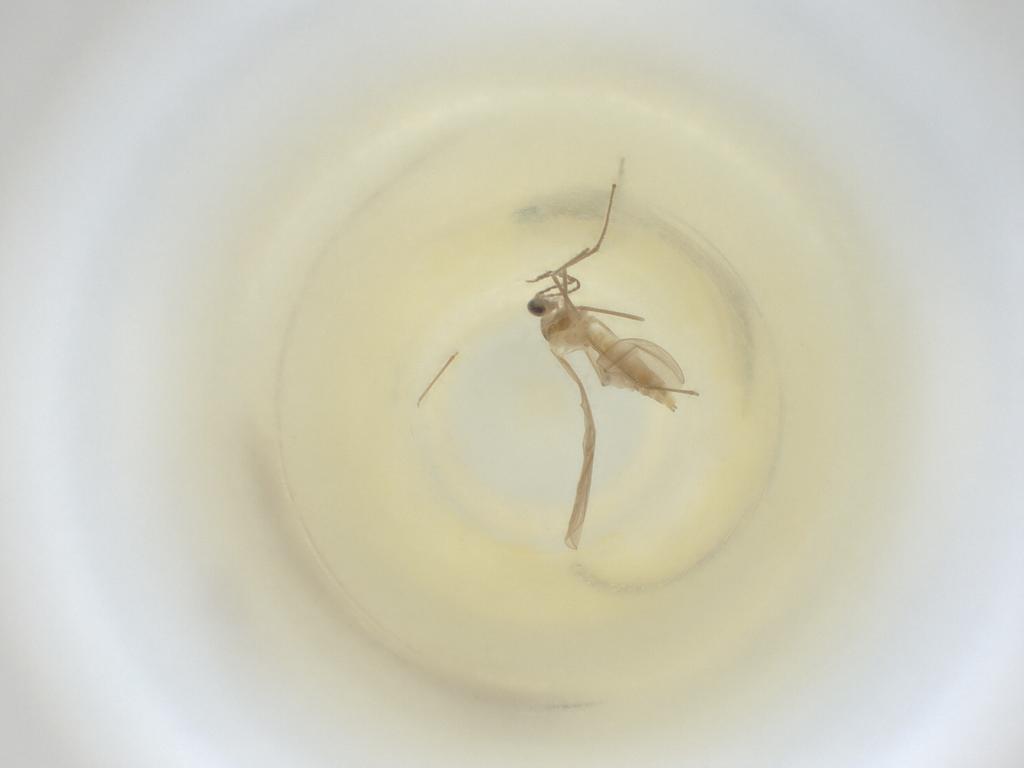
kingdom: Animalia
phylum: Arthropoda
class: Insecta
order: Diptera
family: Cecidomyiidae
